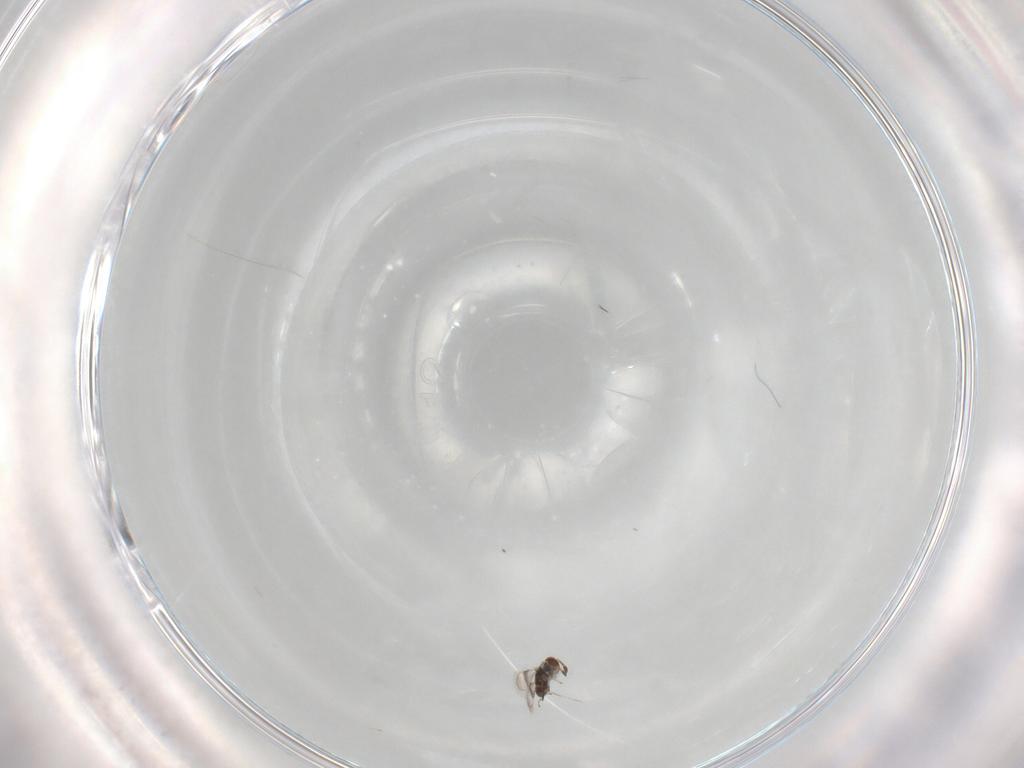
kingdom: Animalia
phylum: Arthropoda
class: Insecta
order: Hymenoptera
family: Azotidae
